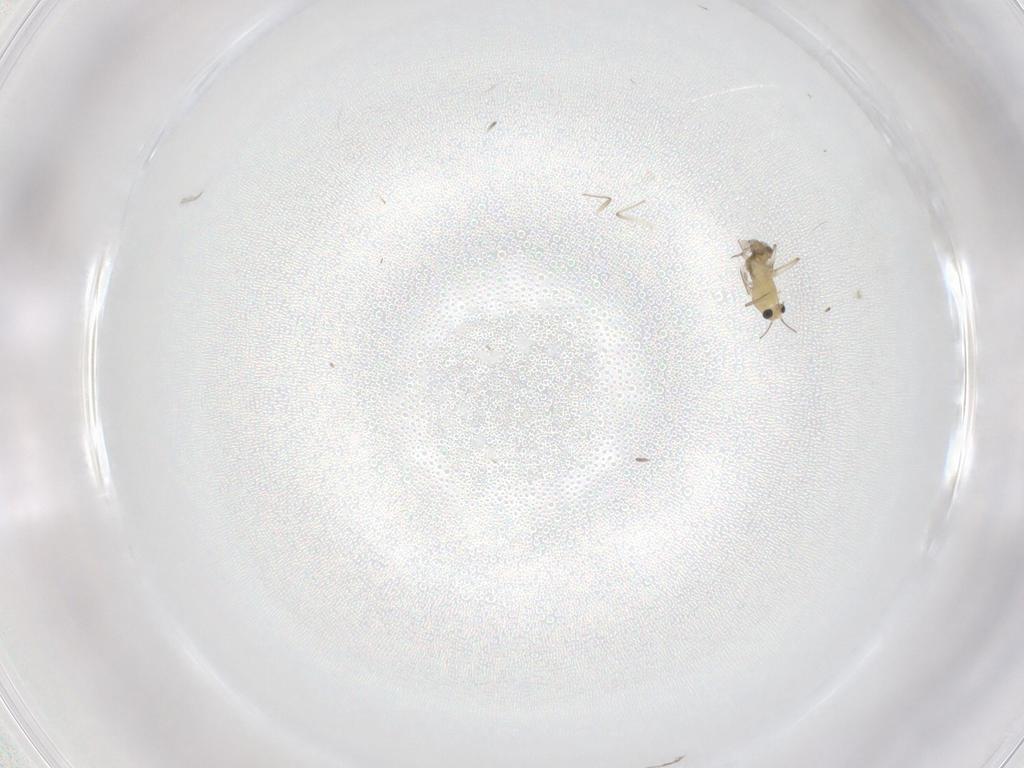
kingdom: Animalia
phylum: Arthropoda
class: Insecta
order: Diptera
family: Chironomidae
